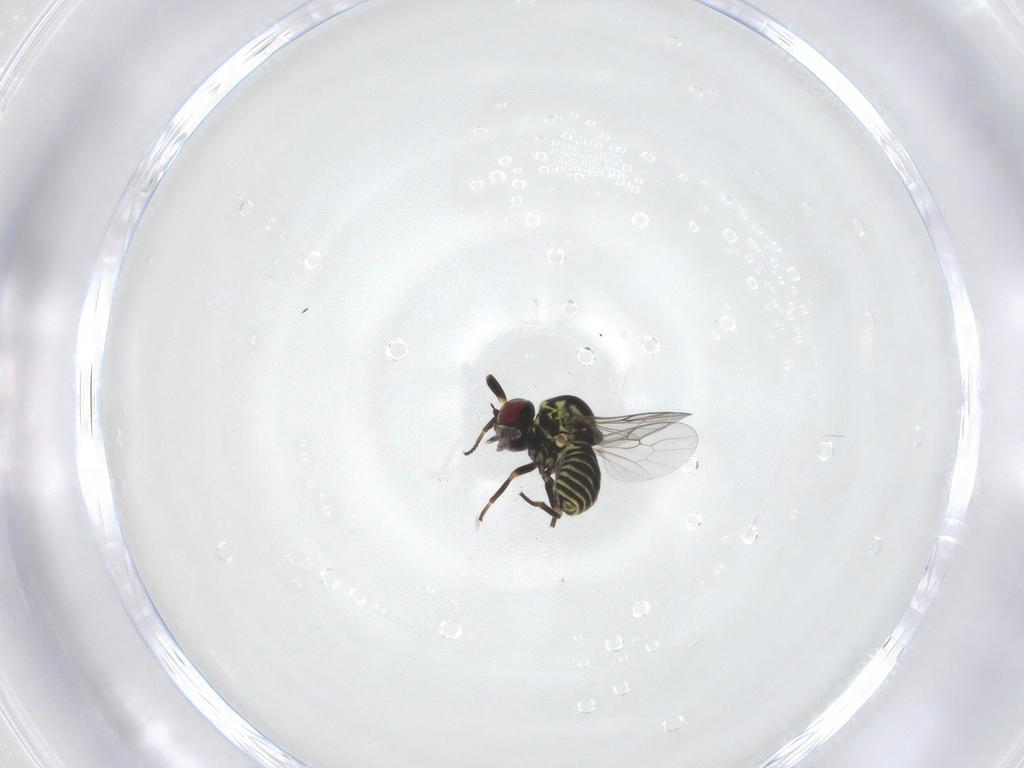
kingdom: Animalia
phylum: Arthropoda
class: Insecta
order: Diptera
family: Mythicomyiidae
